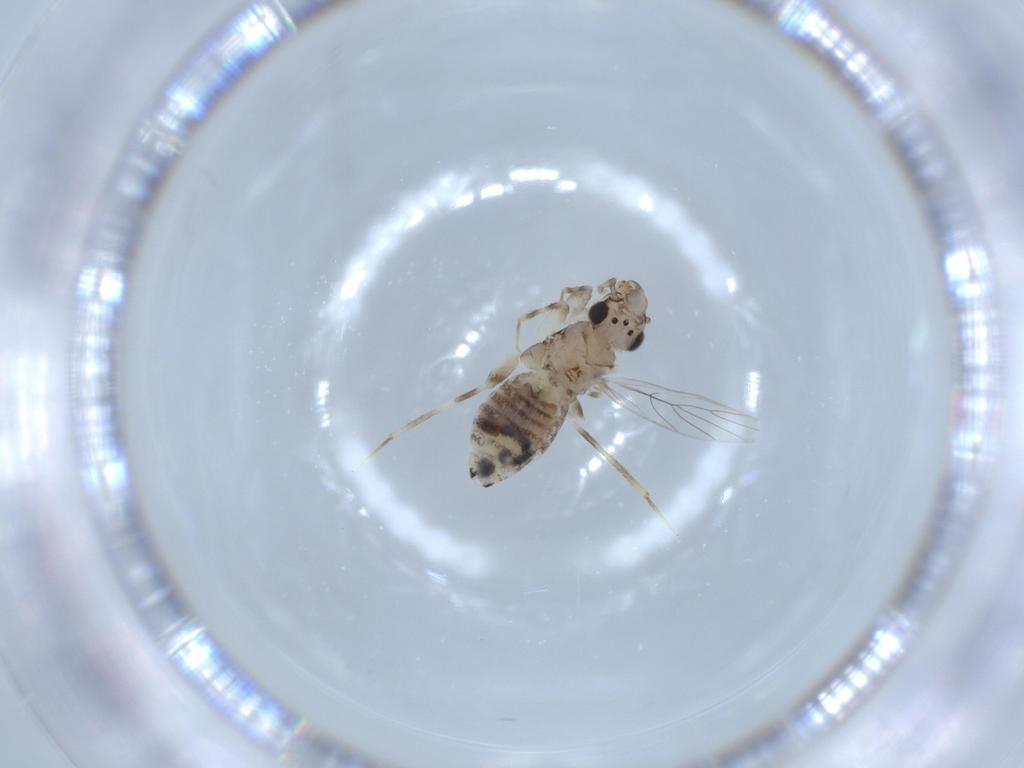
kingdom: Animalia
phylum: Arthropoda
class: Insecta
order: Psocodea
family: Lepidopsocidae
